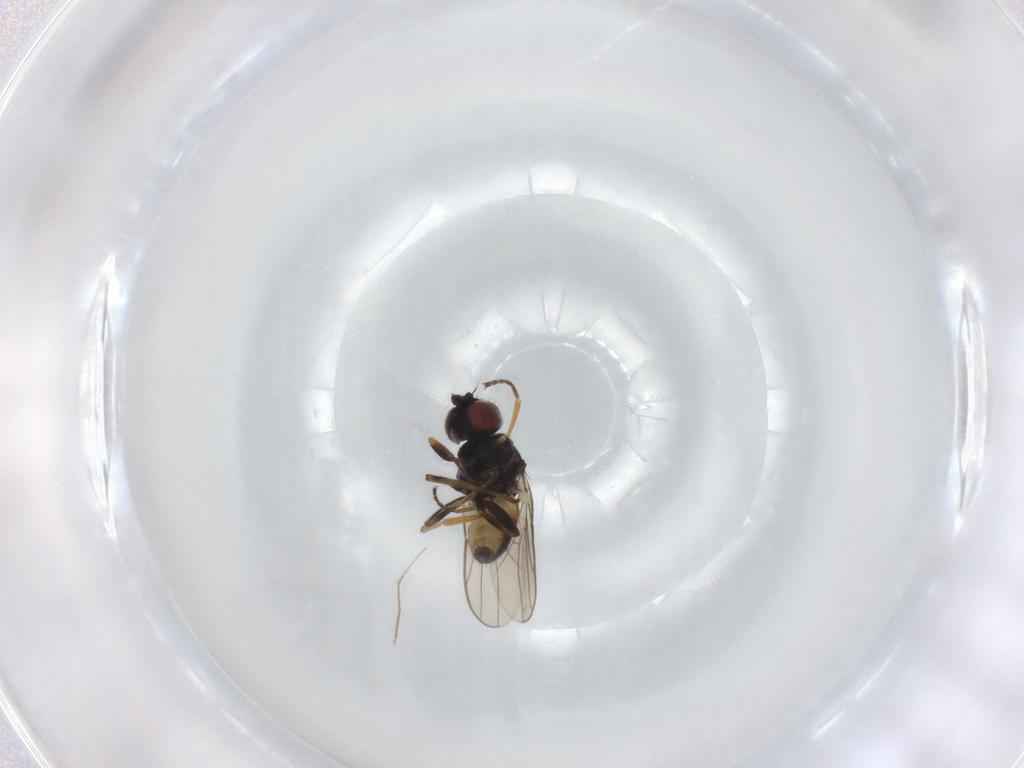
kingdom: Animalia
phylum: Arthropoda
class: Insecta
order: Diptera
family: Chloropidae
